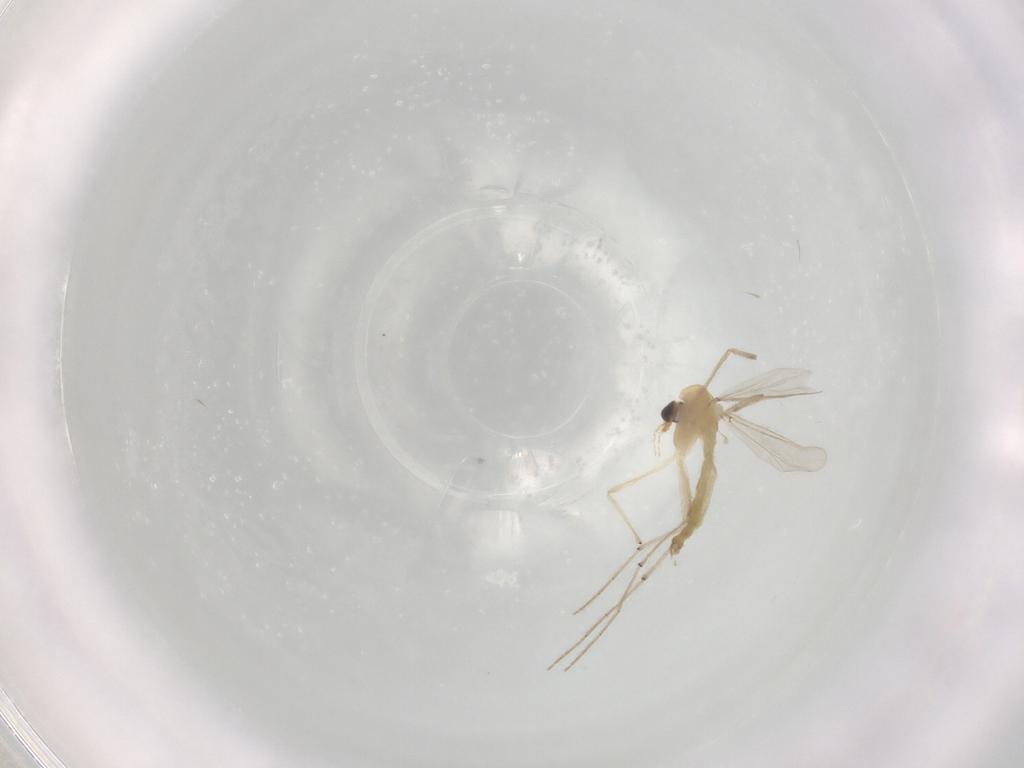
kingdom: Animalia
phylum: Arthropoda
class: Insecta
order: Diptera
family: Chironomidae
